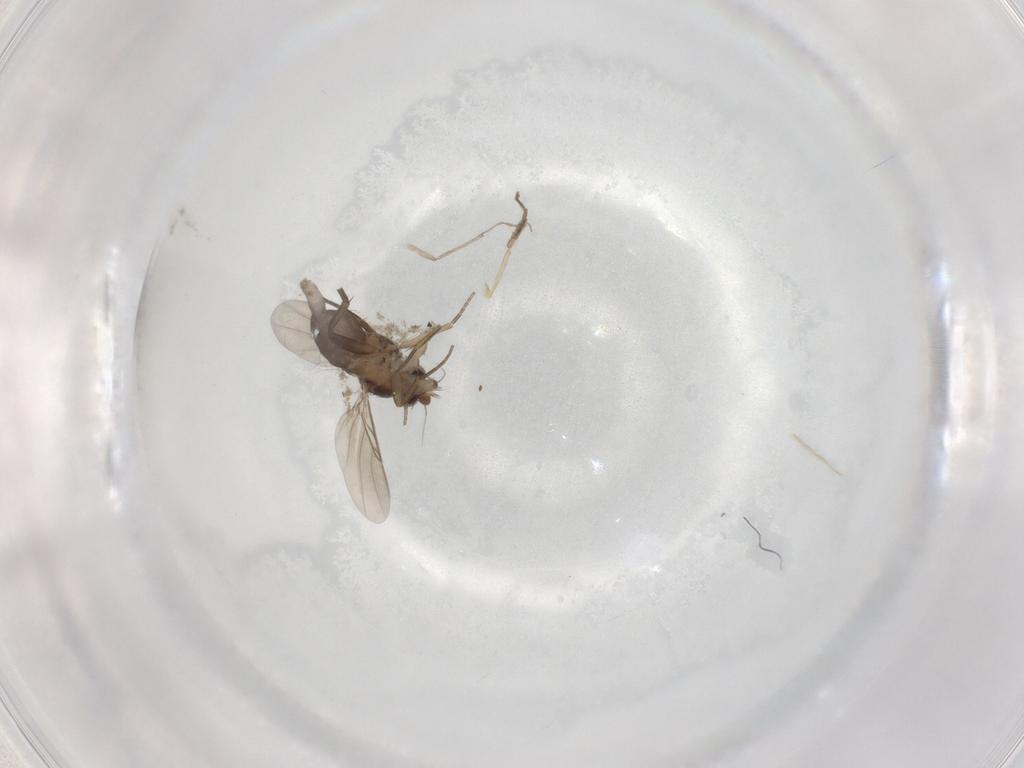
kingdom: Animalia
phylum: Arthropoda
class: Insecta
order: Diptera
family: Phoridae
